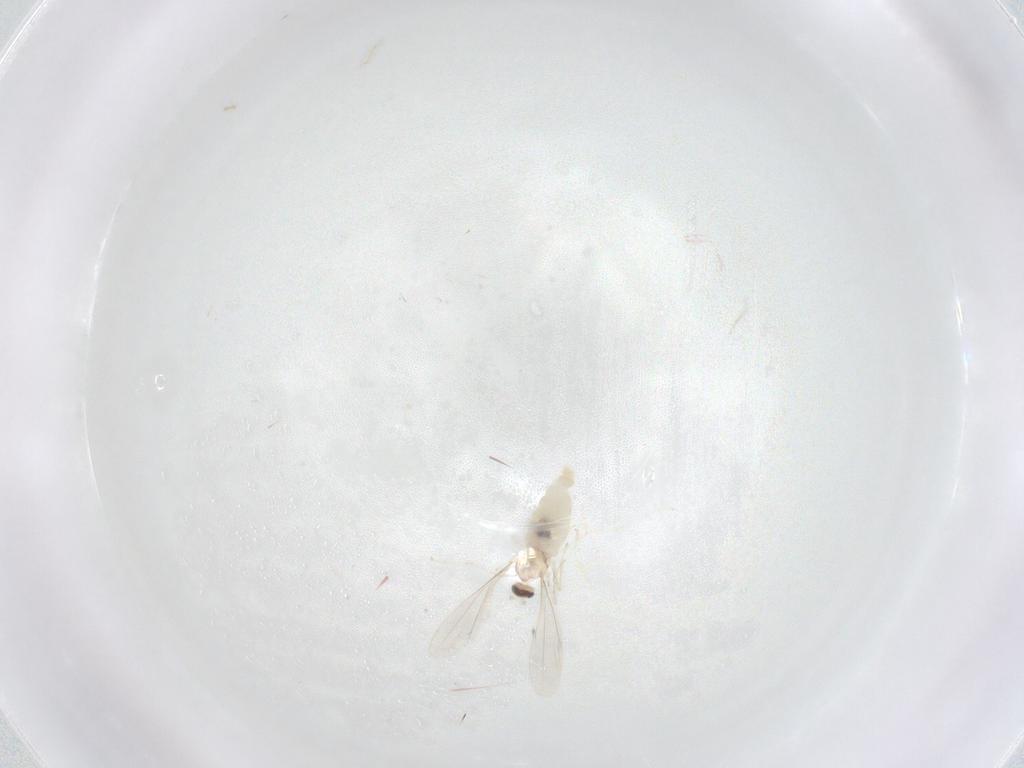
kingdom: Animalia
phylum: Arthropoda
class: Insecta
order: Diptera
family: Cecidomyiidae
